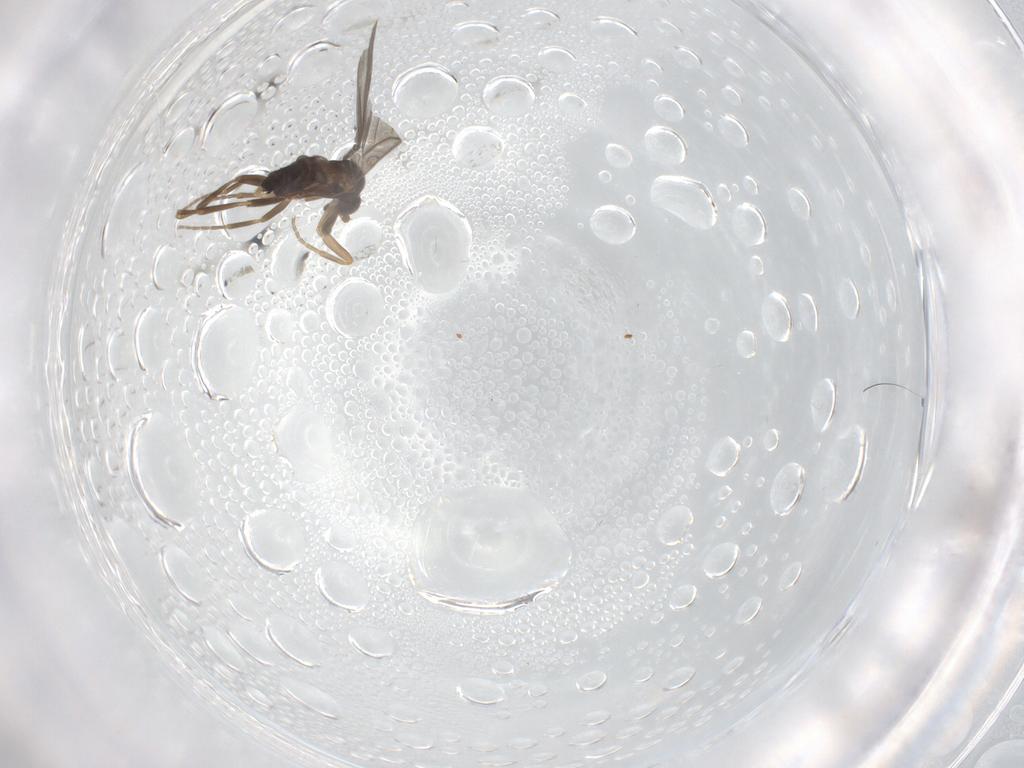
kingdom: Animalia
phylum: Arthropoda
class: Insecta
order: Diptera
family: Muscidae
